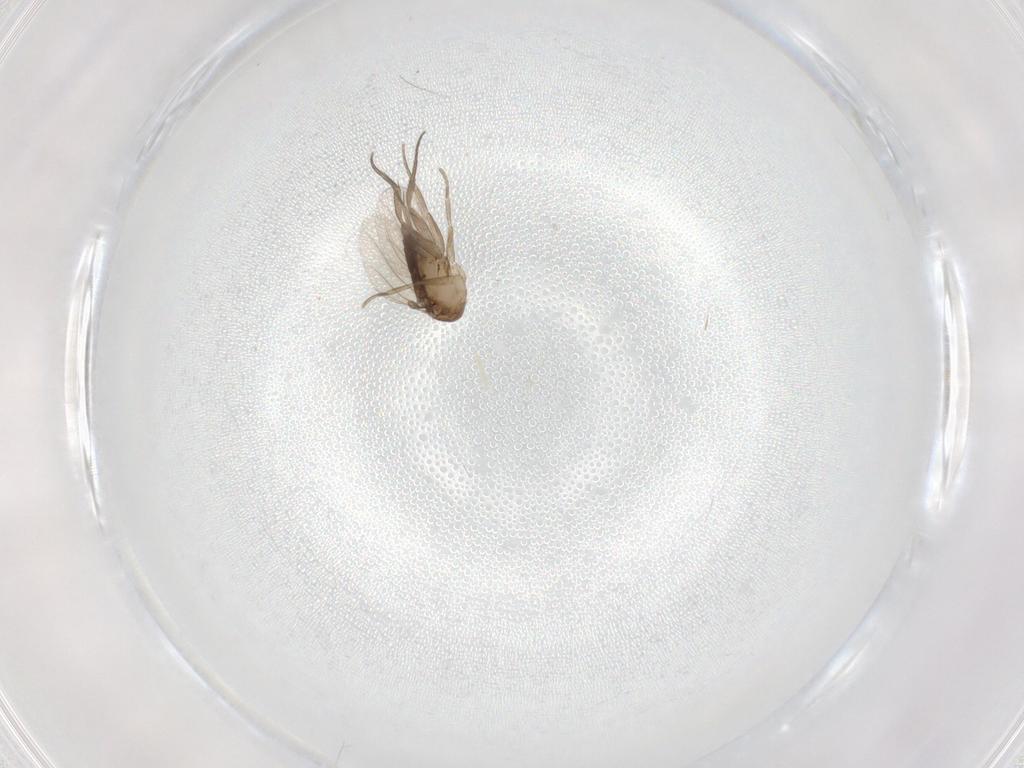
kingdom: Animalia
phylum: Arthropoda
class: Insecta
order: Diptera
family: Phoridae
